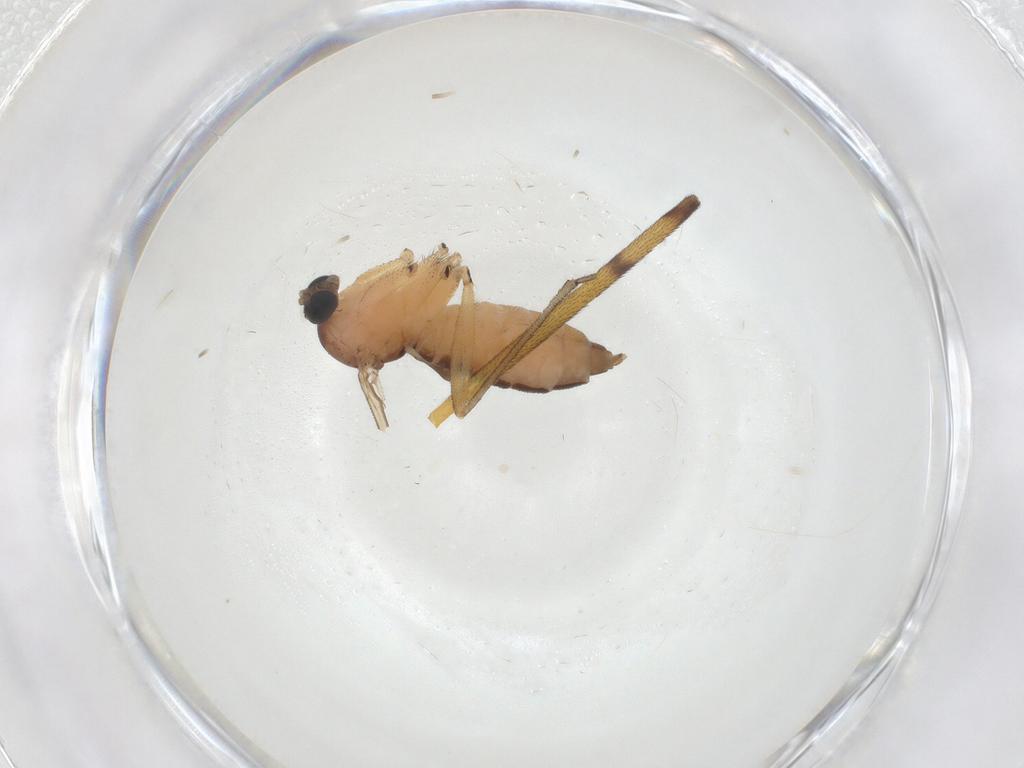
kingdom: Animalia
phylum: Arthropoda
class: Insecta
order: Diptera
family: Sciaridae
